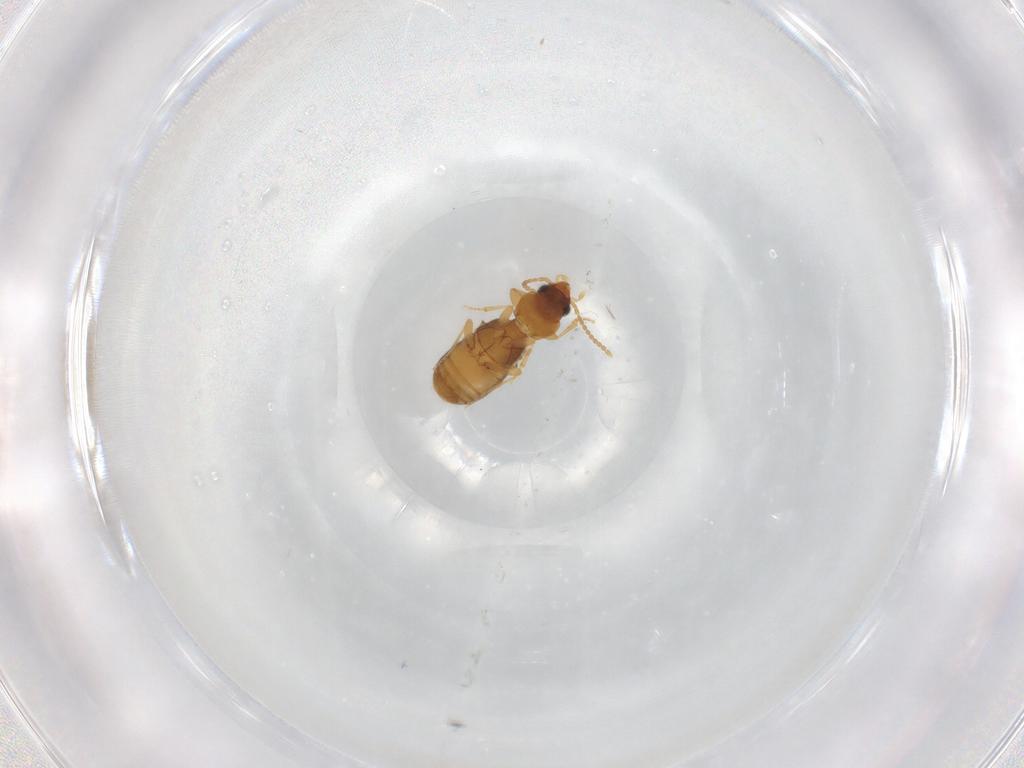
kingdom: Animalia
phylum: Arthropoda
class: Insecta
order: Coleoptera
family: Carabidae
